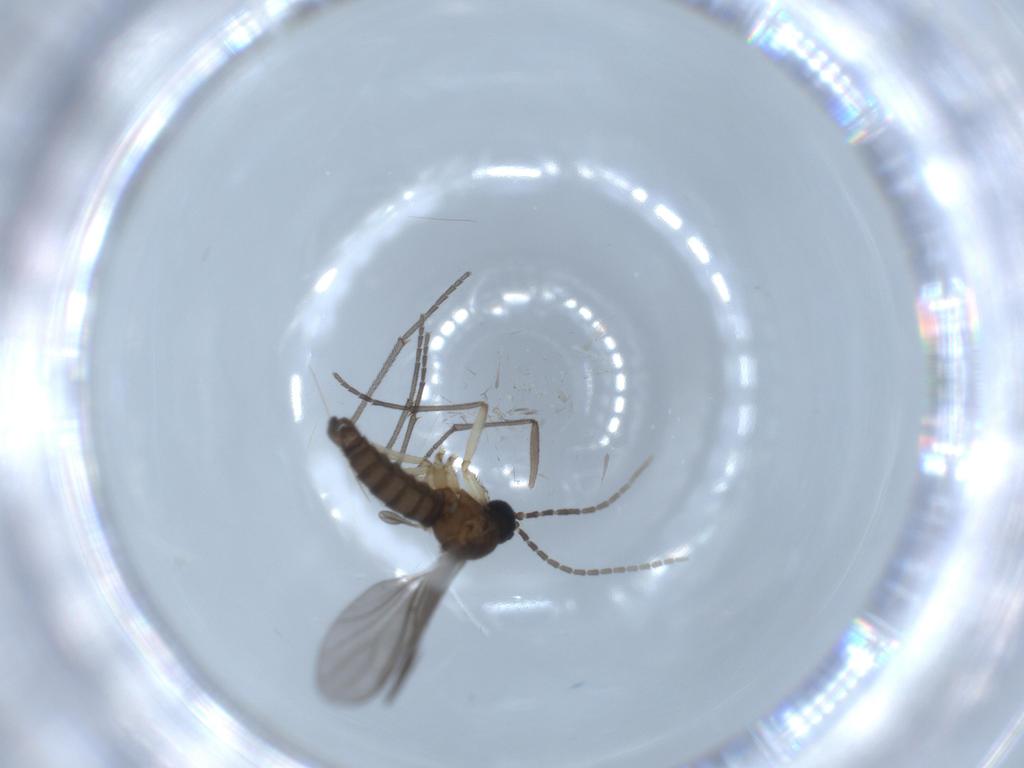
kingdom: Animalia
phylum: Arthropoda
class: Insecta
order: Diptera
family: Sciaridae
